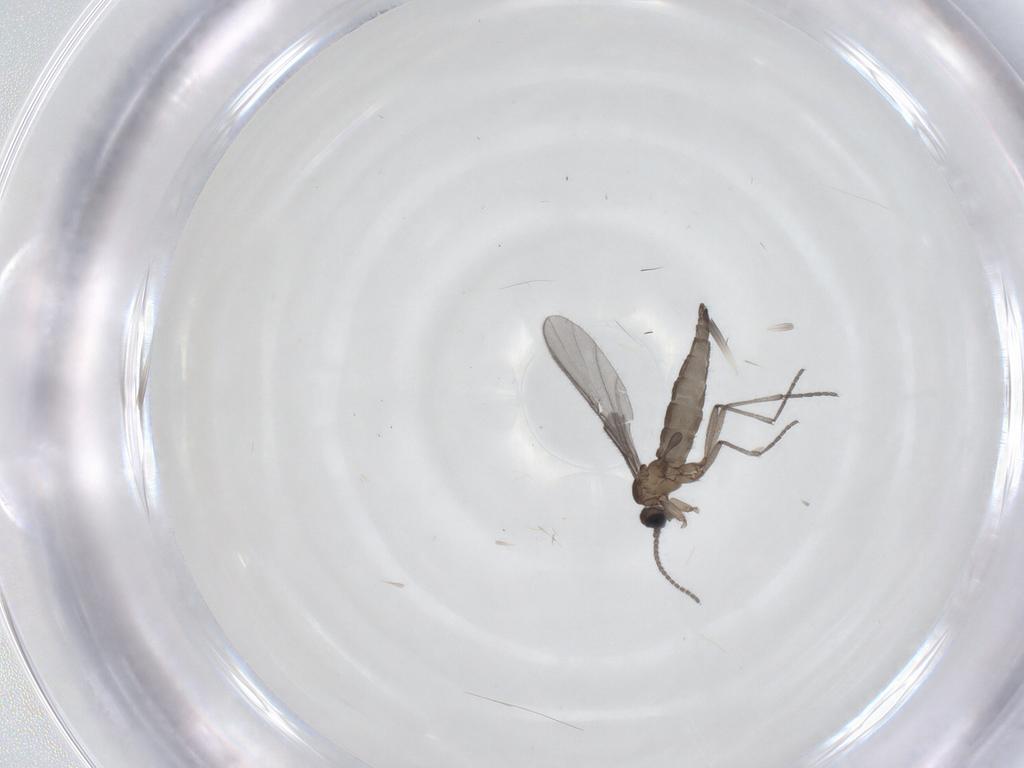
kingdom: Animalia
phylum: Arthropoda
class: Insecta
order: Diptera
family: Sciaridae
